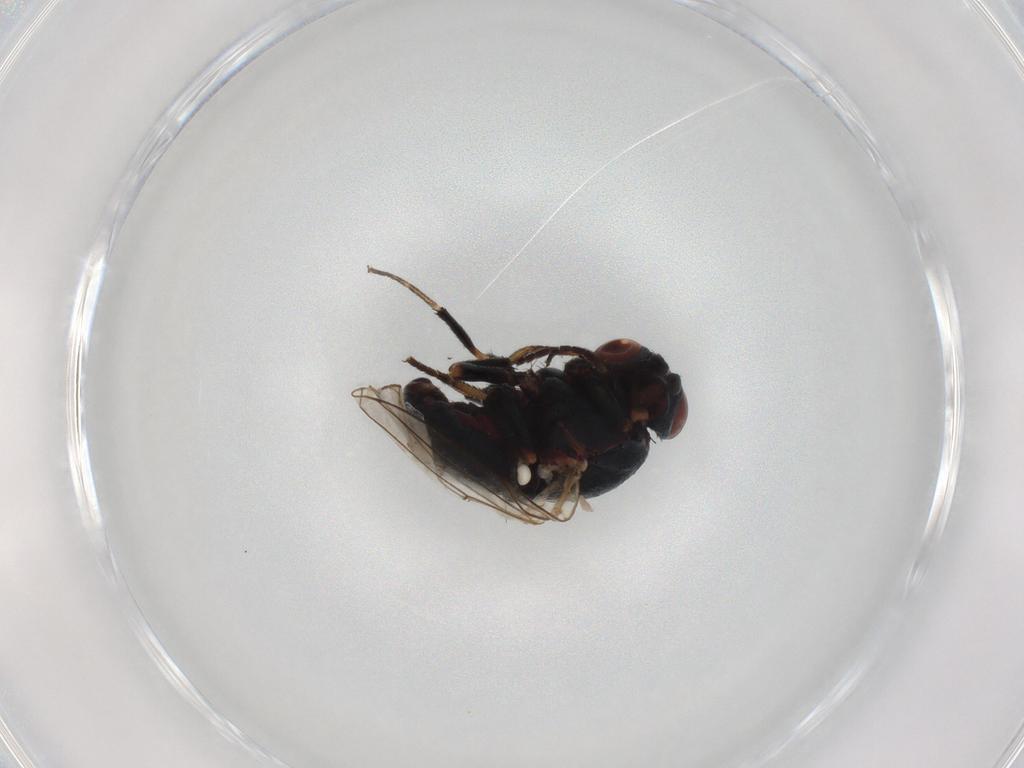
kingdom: Animalia
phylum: Arthropoda
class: Insecta
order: Diptera
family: Chamaemyiidae
